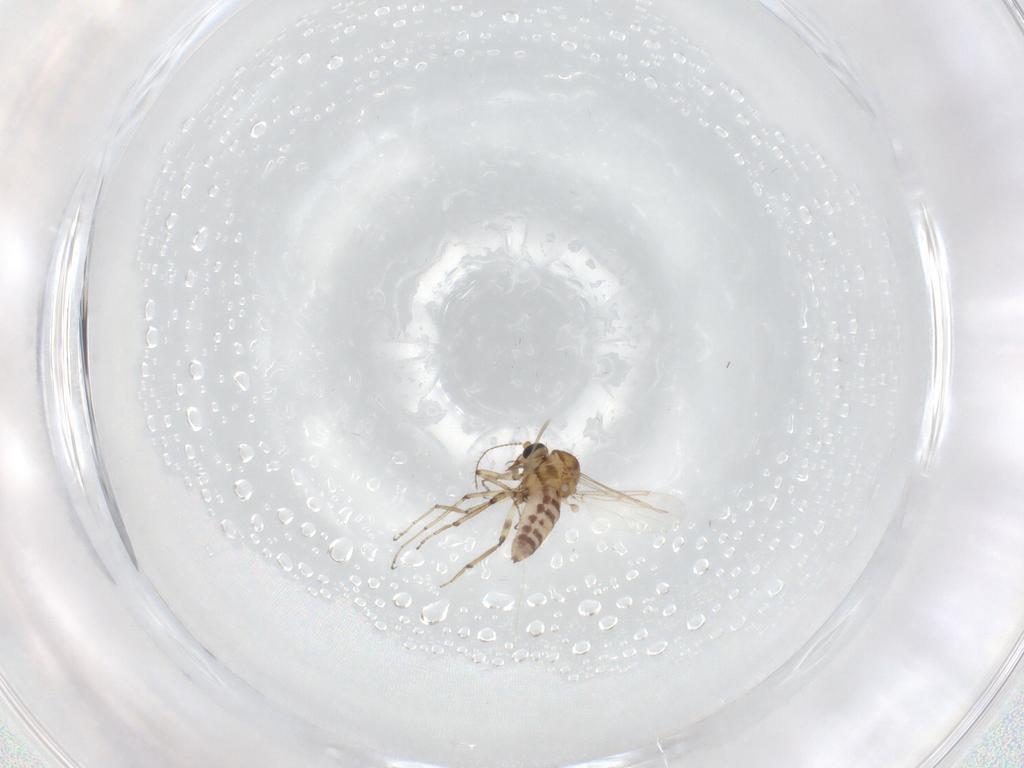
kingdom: Animalia
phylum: Arthropoda
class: Insecta
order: Diptera
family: Ceratopogonidae
